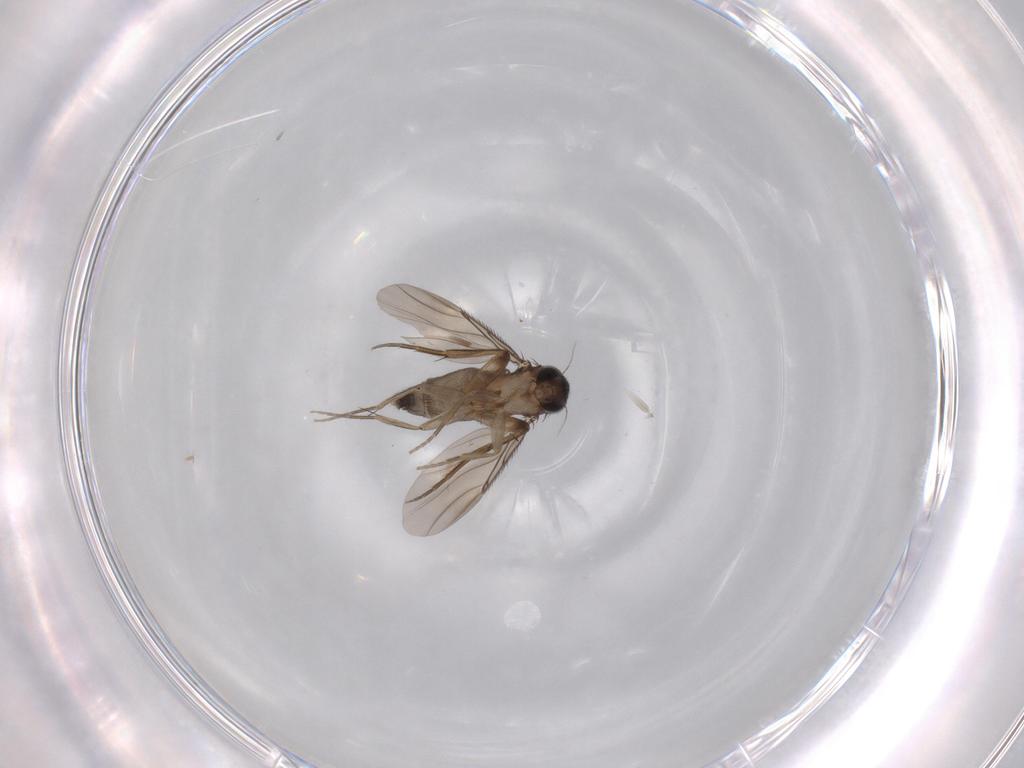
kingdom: Animalia
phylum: Arthropoda
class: Insecta
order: Diptera
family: Phoridae
